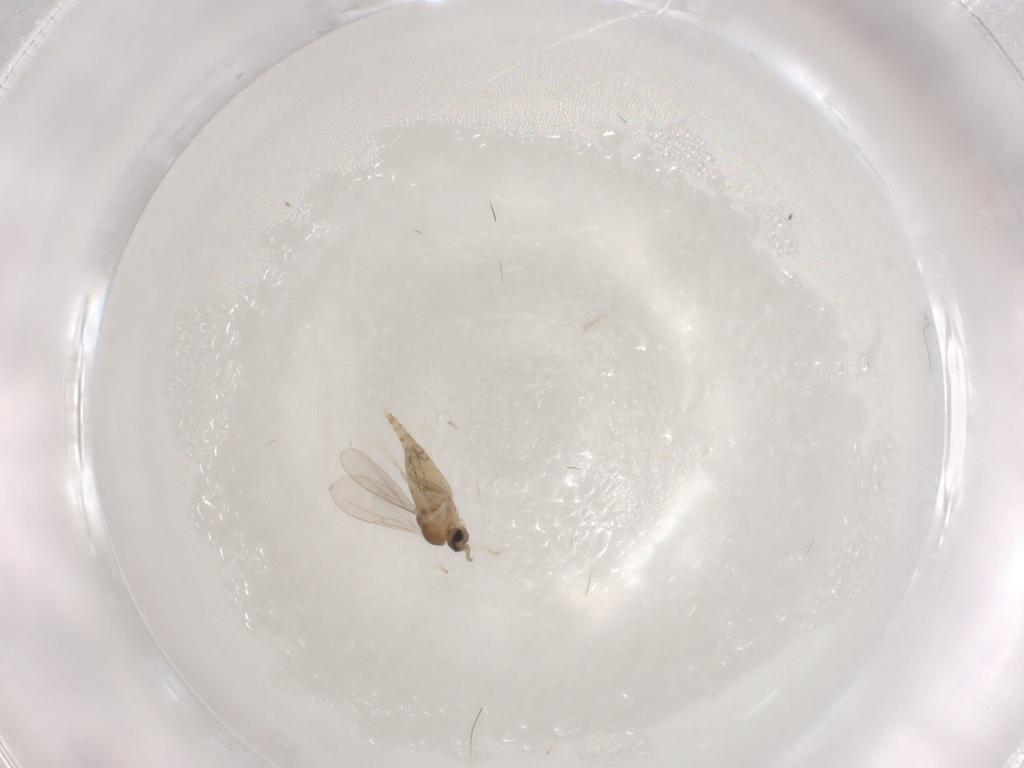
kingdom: Animalia
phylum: Arthropoda
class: Insecta
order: Diptera
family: Cecidomyiidae
